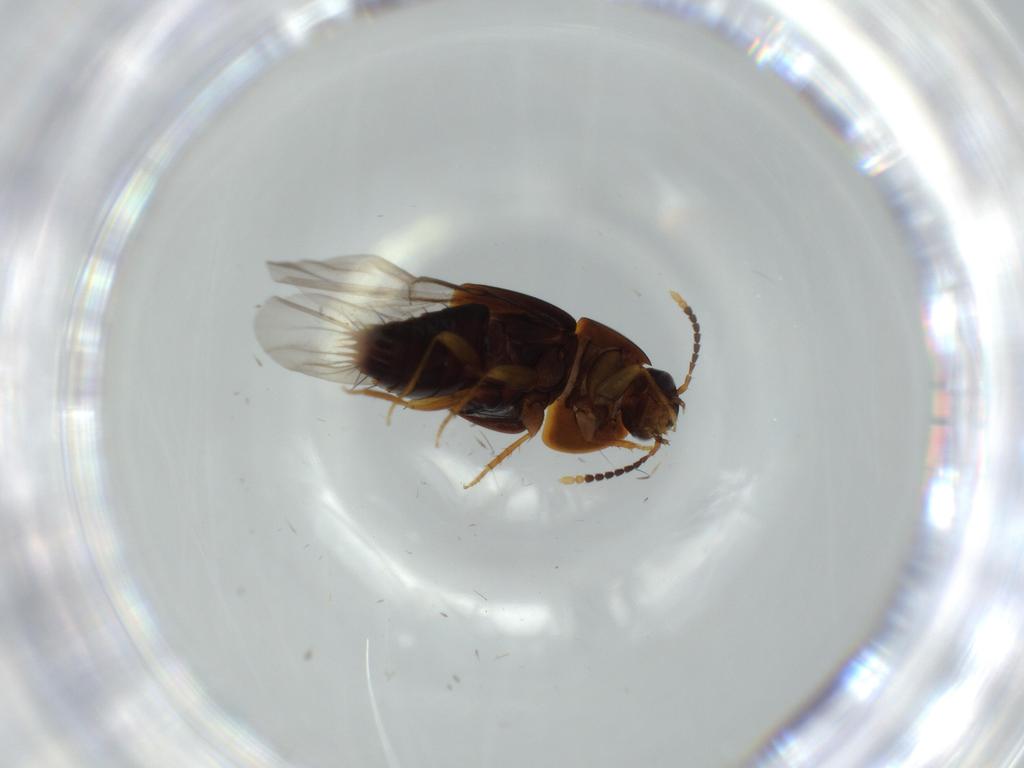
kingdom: Animalia
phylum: Arthropoda
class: Insecta
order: Coleoptera
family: Staphylinidae
